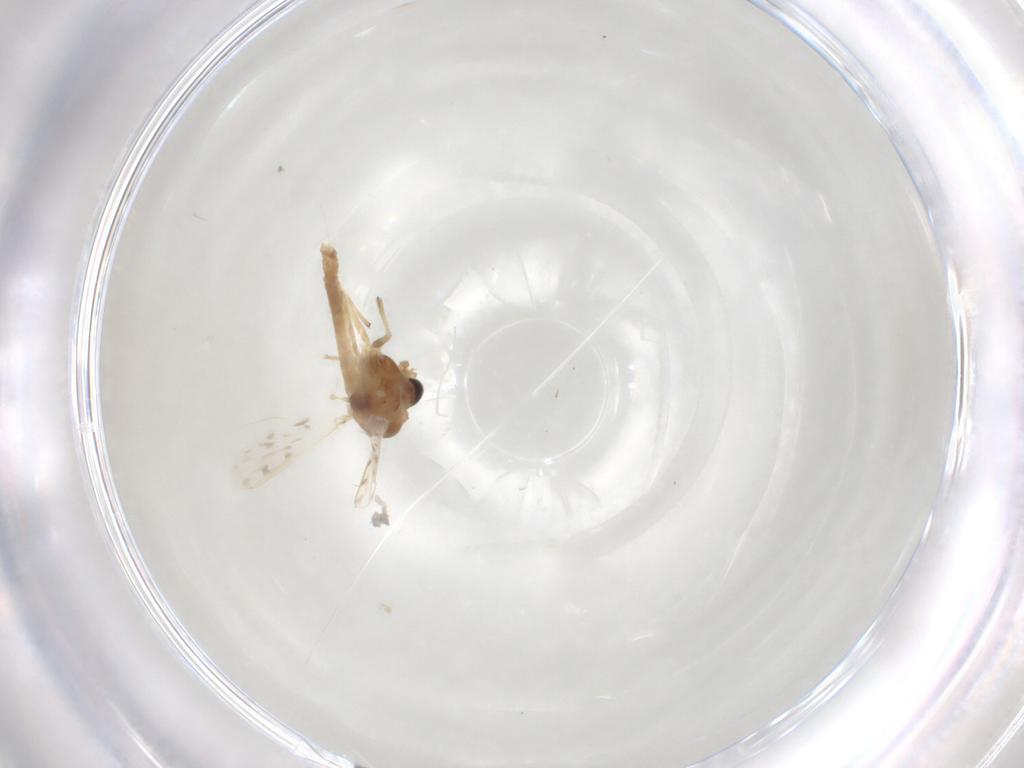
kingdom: Animalia
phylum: Arthropoda
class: Insecta
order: Diptera
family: Chironomidae
